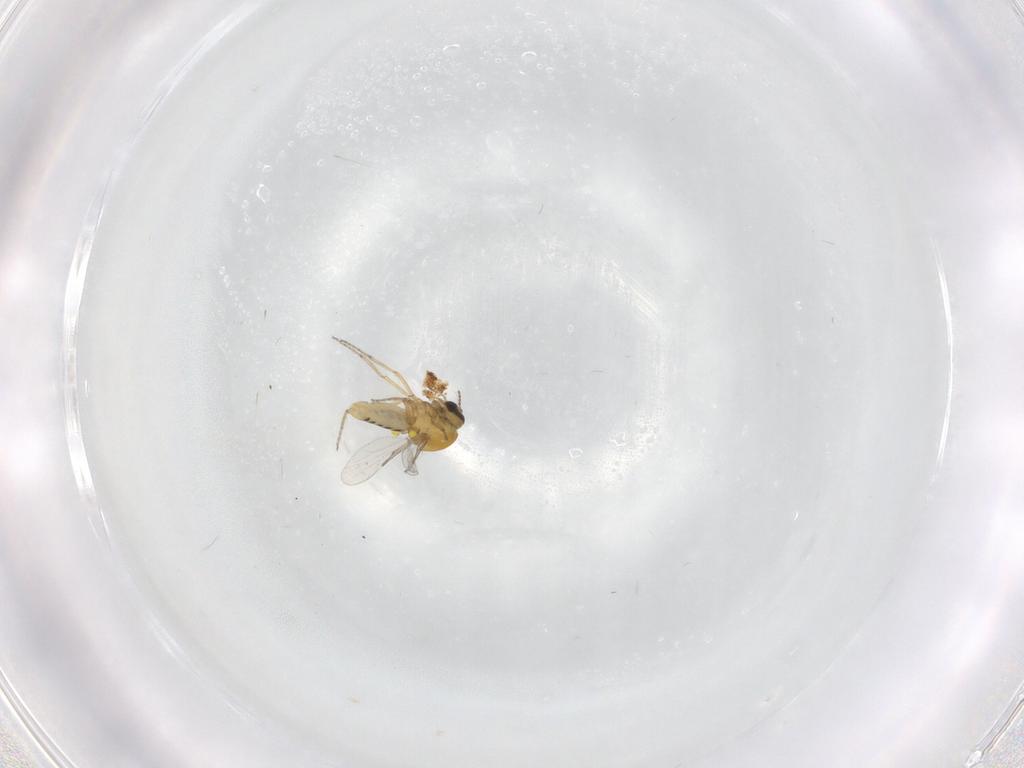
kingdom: Animalia
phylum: Arthropoda
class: Insecta
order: Diptera
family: Ceratopogonidae
